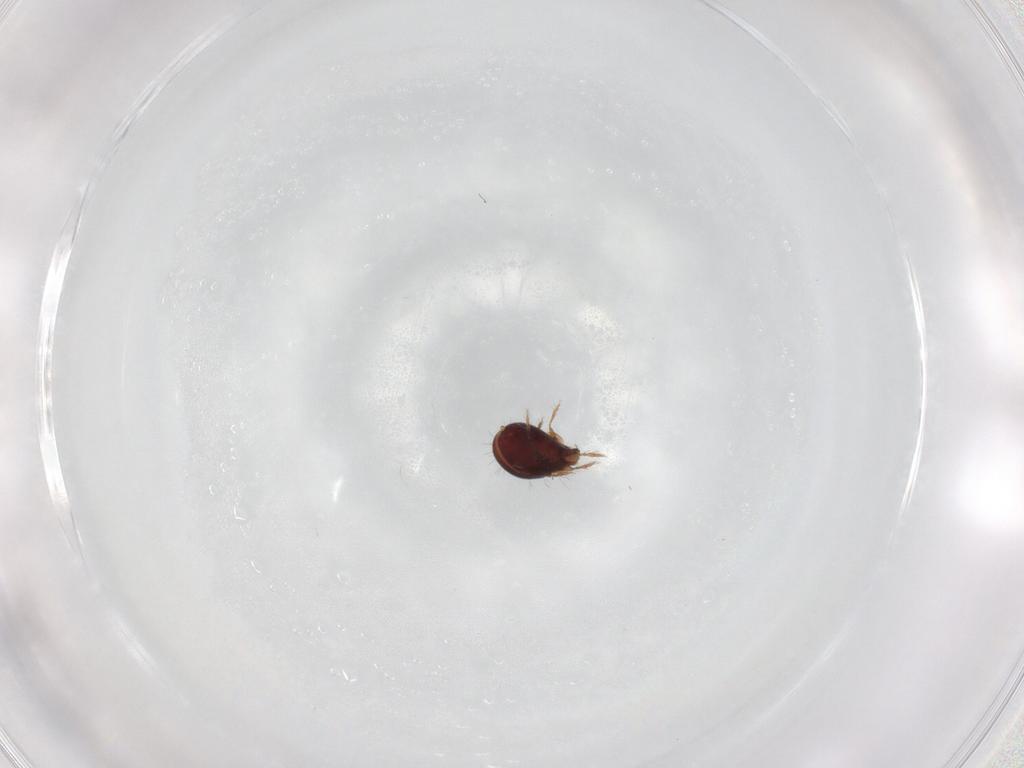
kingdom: Animalia
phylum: Arthropoda
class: Arachnida
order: Sarcoptiformes
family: Humerobatidae
